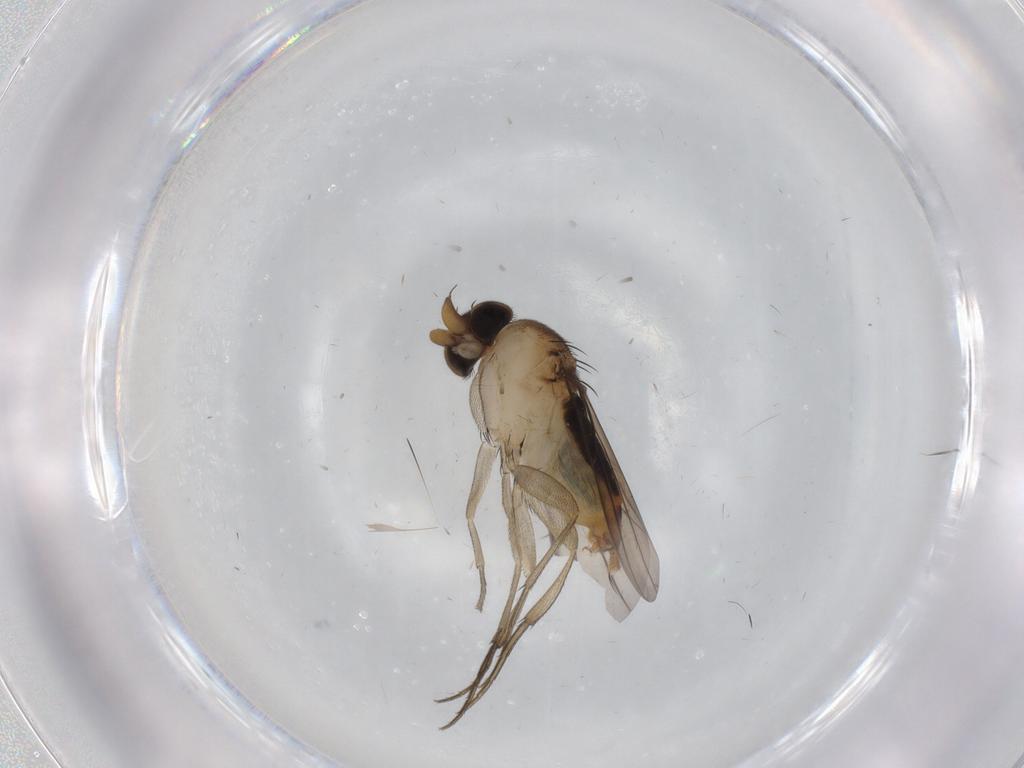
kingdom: Animalia
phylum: Arthropoda
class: Insecta
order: Diptera
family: Phoridae
